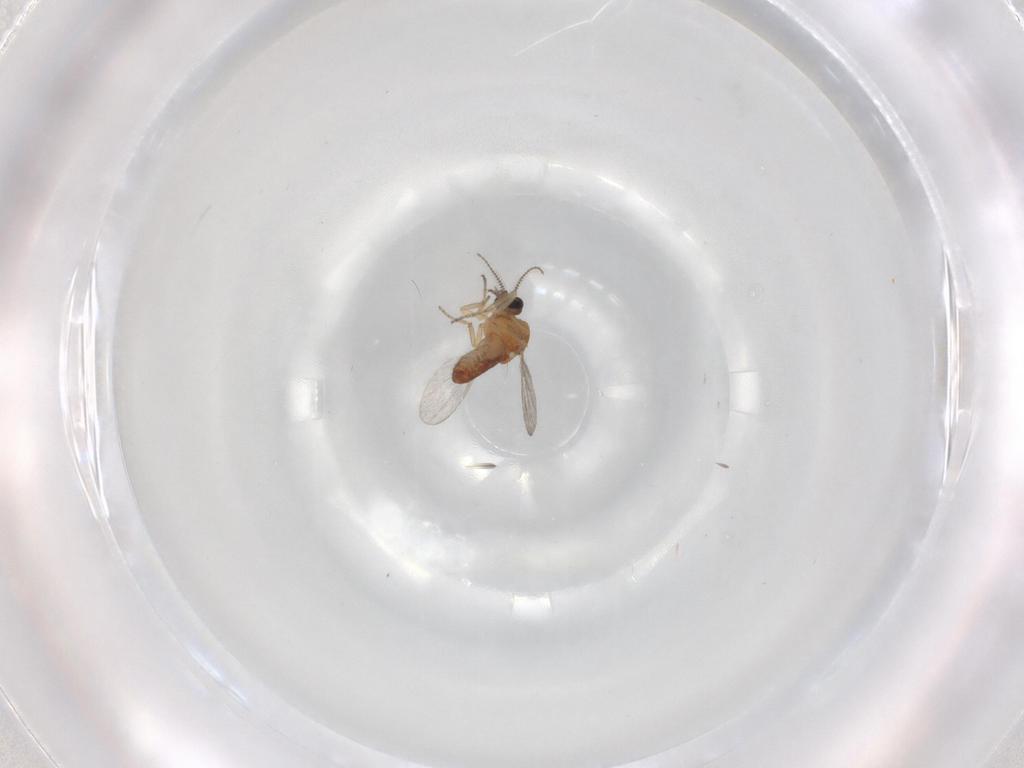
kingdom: Animalia
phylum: Arthropoda
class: Insecta
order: Diptera
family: Ceratopogonidae
